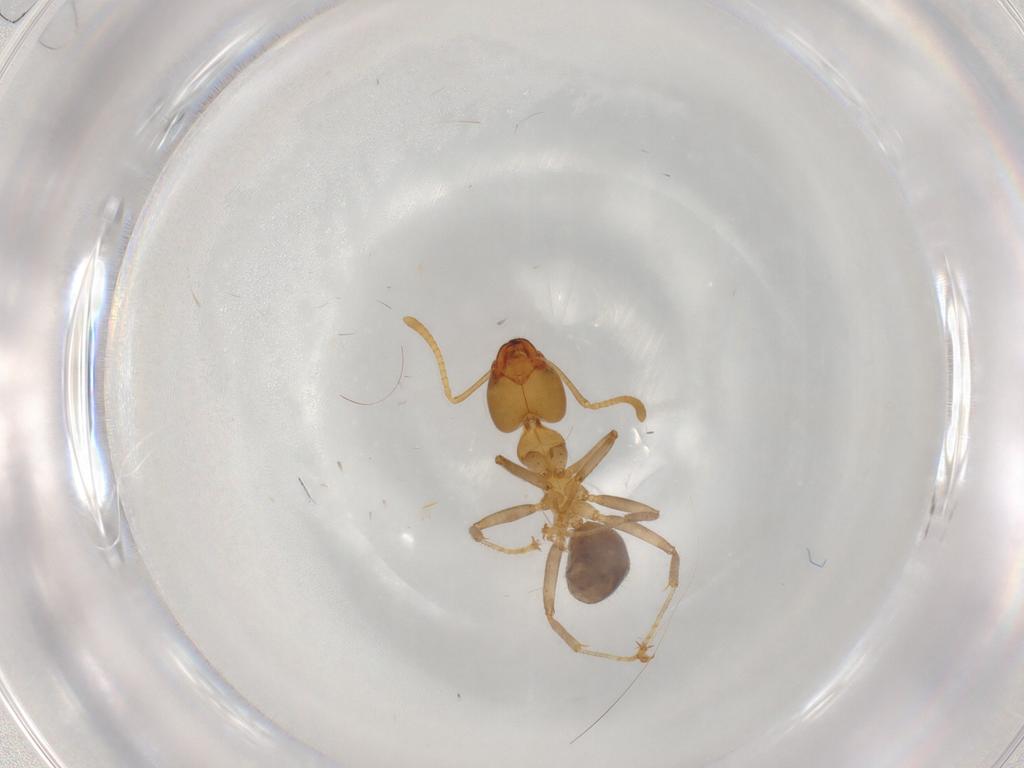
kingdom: Animalia
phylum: Arthropoda
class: Insecta
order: Hymenoptera
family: Formicidae
